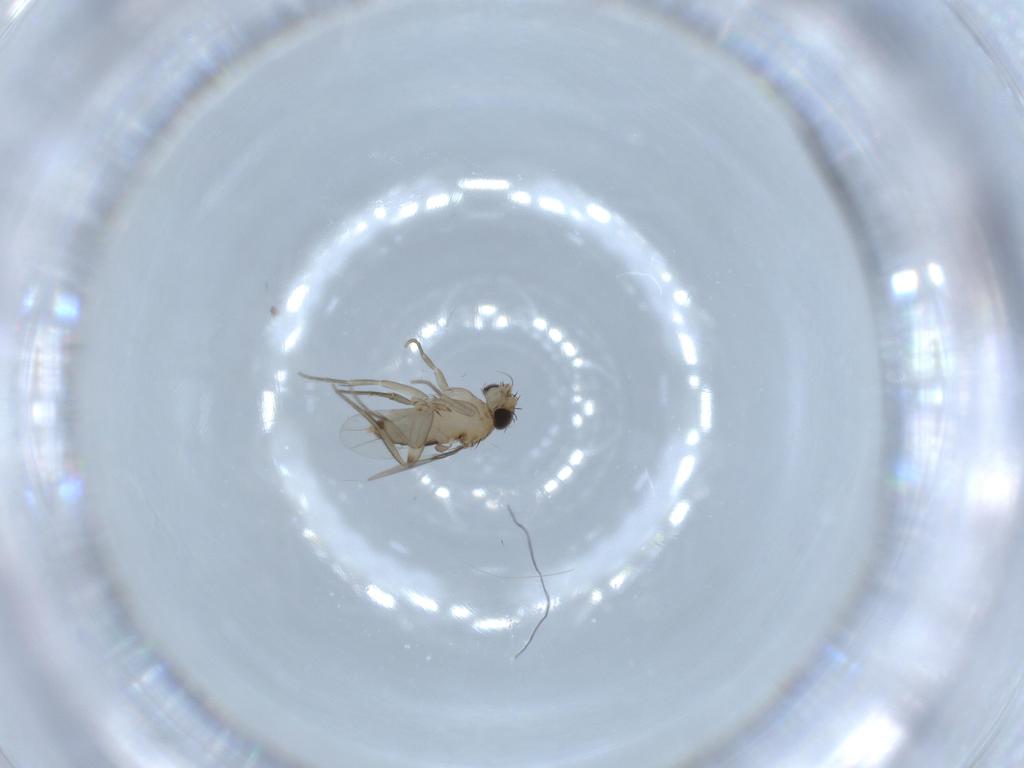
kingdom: Animalia
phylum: Arthropoda
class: Insecta
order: Diptera
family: Phoridae
